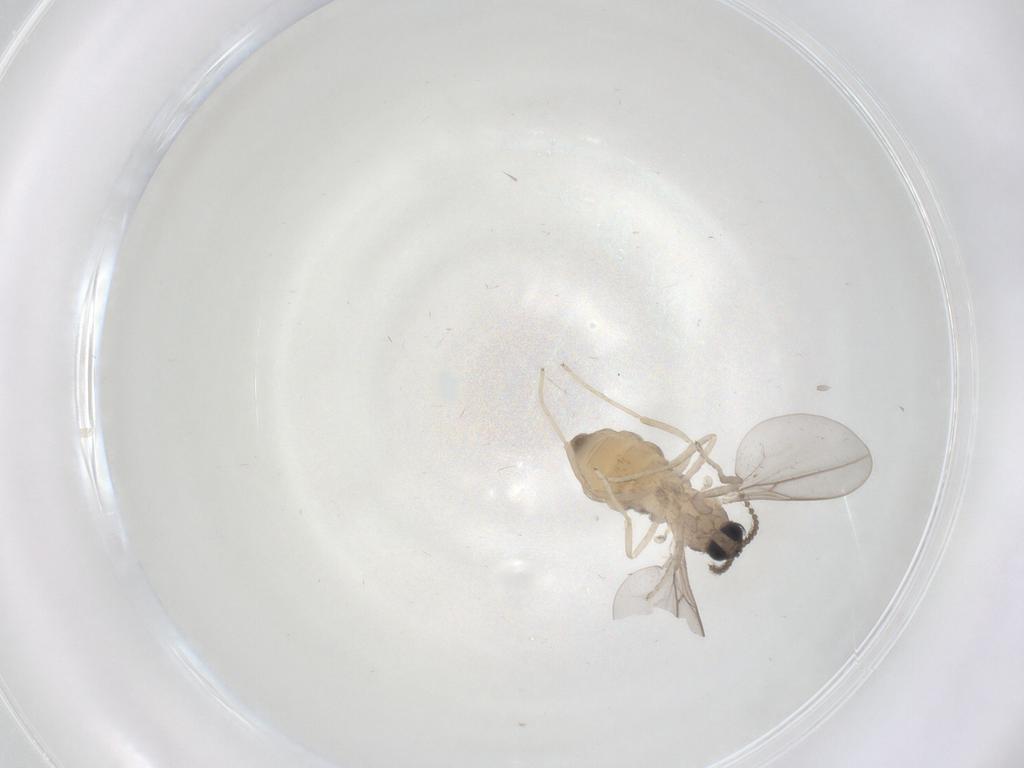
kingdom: Animalia
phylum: Arthropoda
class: Insecta
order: Diptera
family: Cecidomyiidae
